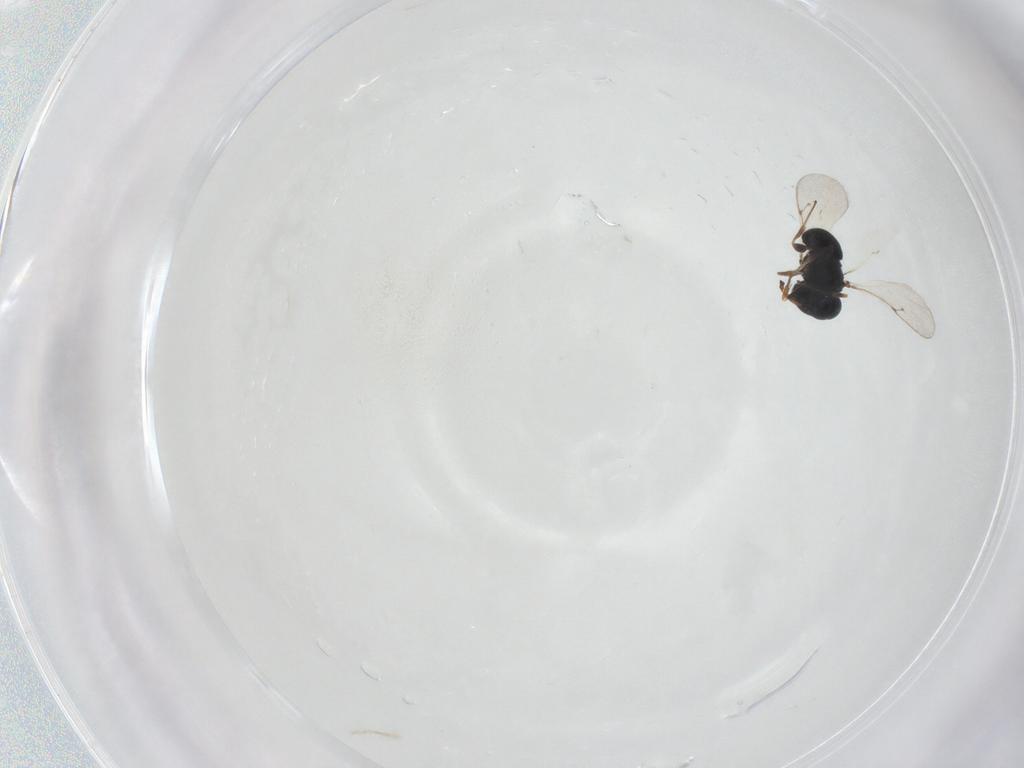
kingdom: Animalia
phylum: Arthropoda
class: Insecta
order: Hymenoptera
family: Scelionidae
